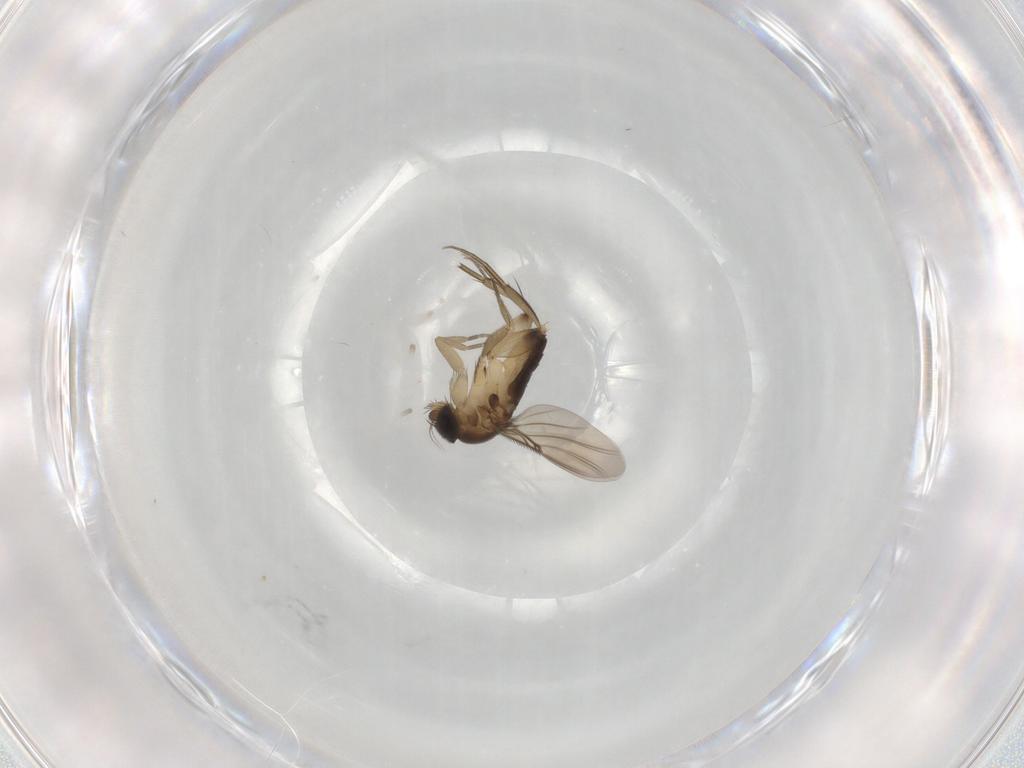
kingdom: Animalia
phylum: Arthropoda
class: Insecta
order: Diptera
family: Phoridae
